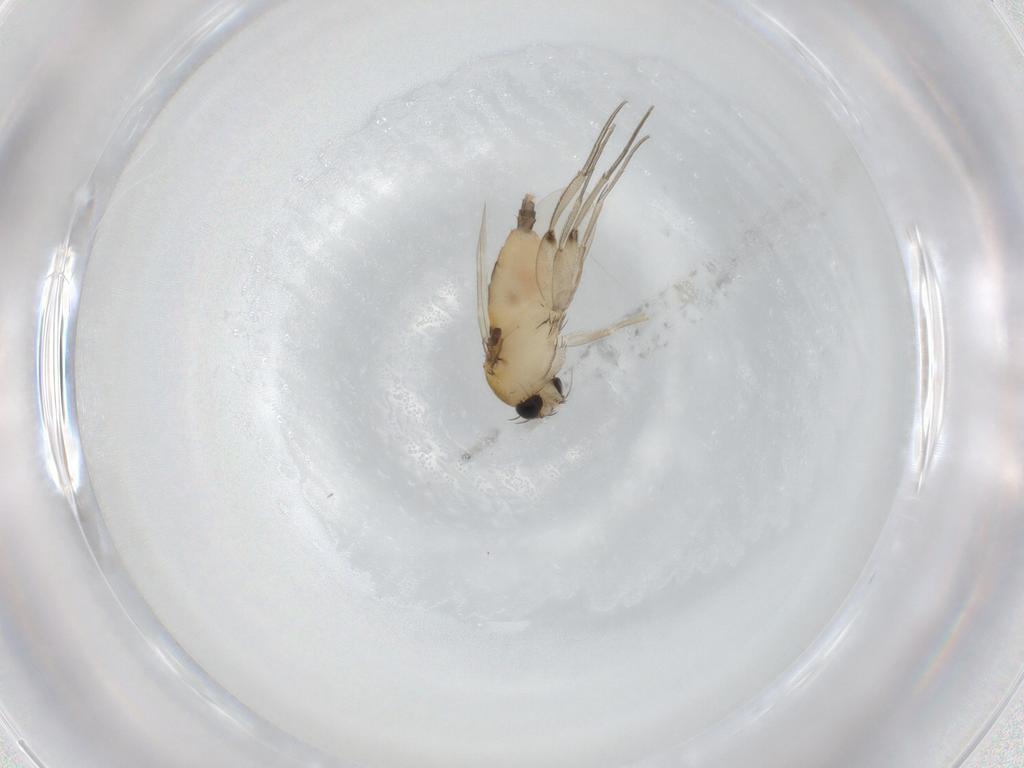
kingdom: Animalia
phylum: Arthropoda
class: Insecta
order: Diptera
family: Phoridae
